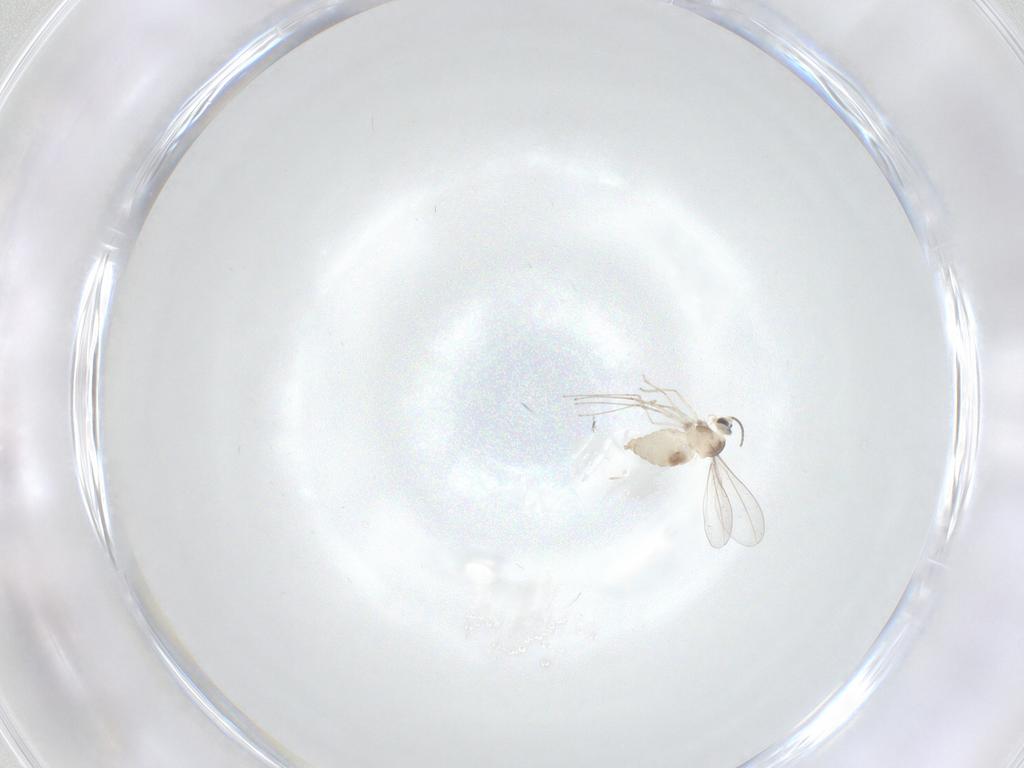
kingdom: Animalia
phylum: Arthropoda
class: Insecta
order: Diptera
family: Cecidomyiidae
